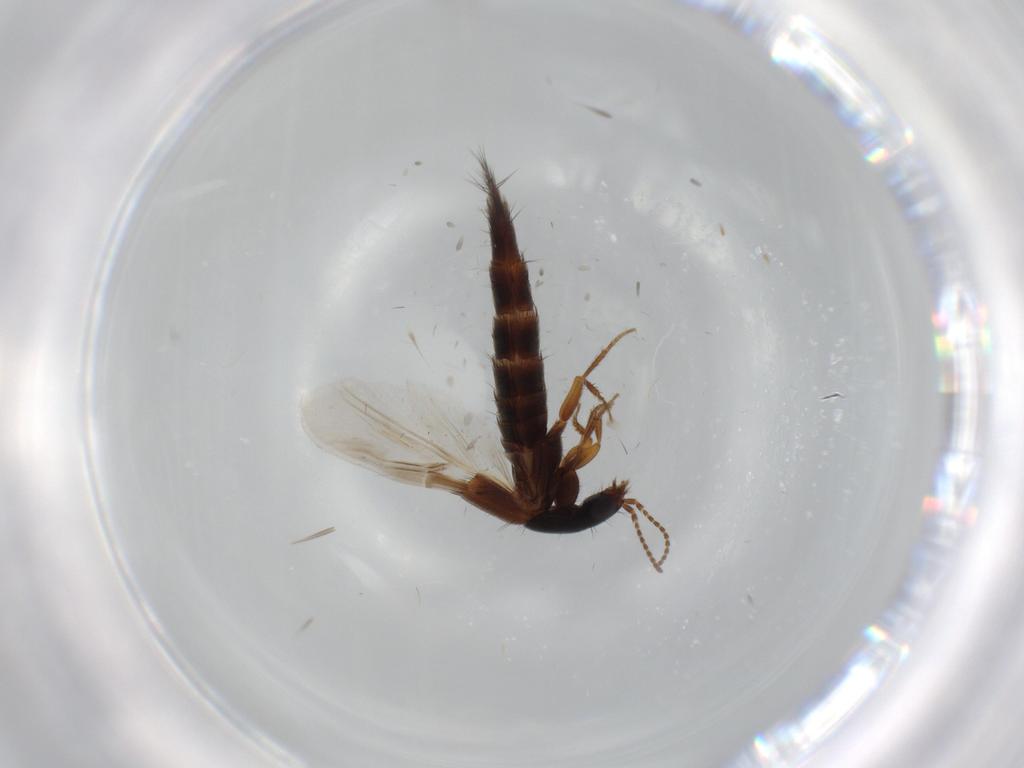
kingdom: Animalia
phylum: Arthropoda
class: Insecta
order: Coleoptera
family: Staphylinidae
